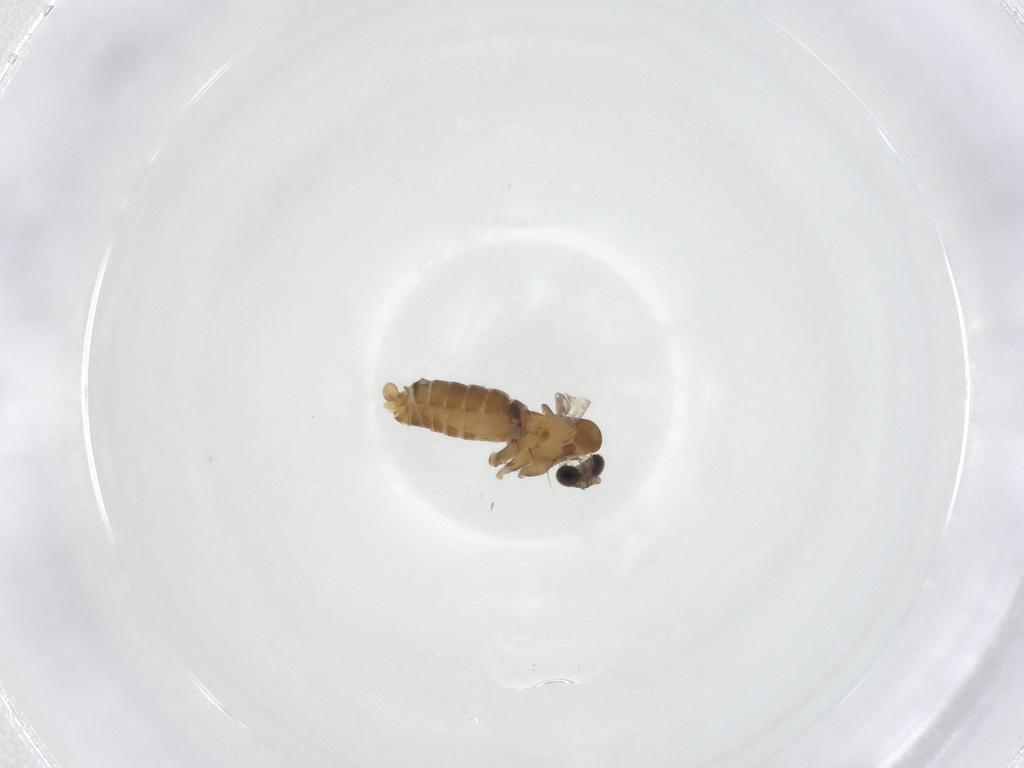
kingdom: Animalia
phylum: Arthropoda
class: Insecta
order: Diptera
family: Psychodidae
